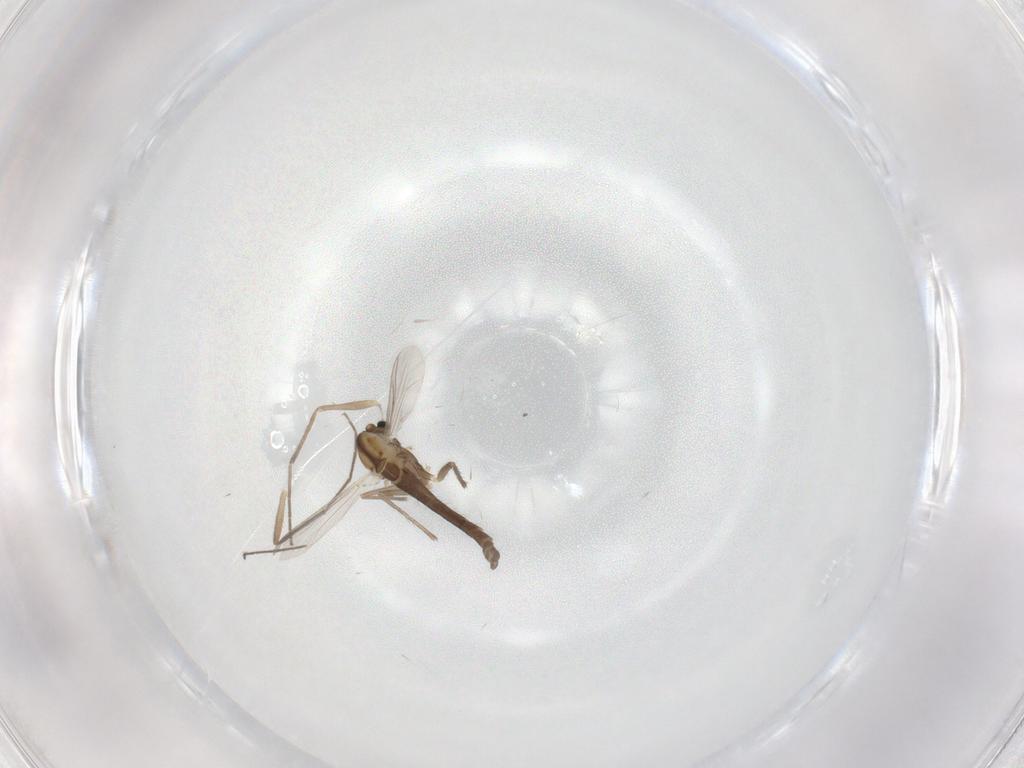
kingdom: Animalia
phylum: Arthropoda
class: Insecta
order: Diptera
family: Chironomidae
